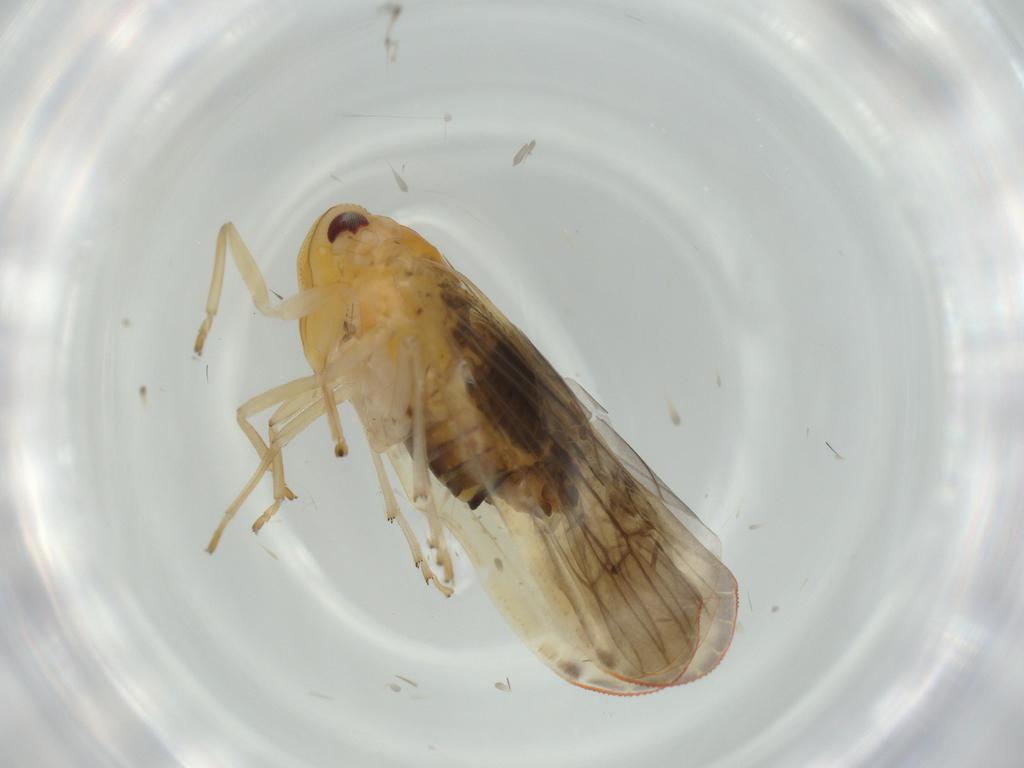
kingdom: Animalia
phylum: Arthropoda
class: Insecta
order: Hemiptera
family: Derbidae
